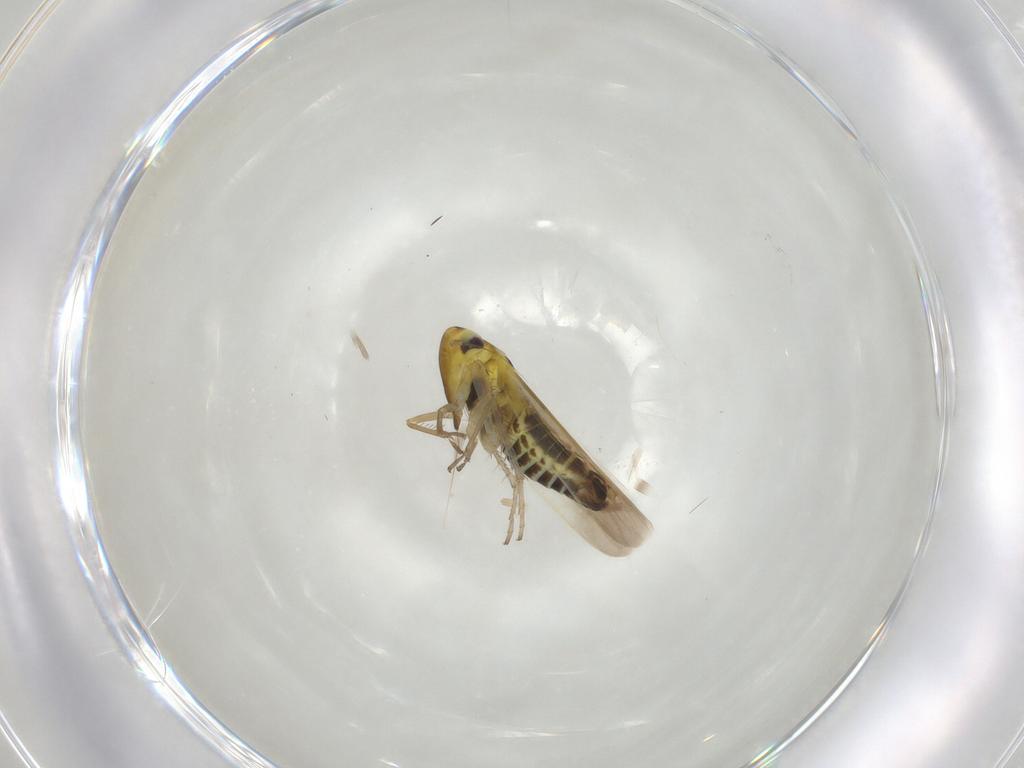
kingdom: Animalia
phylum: Arthropoda
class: Insecta
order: Hemiptera
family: Cicadellidae
